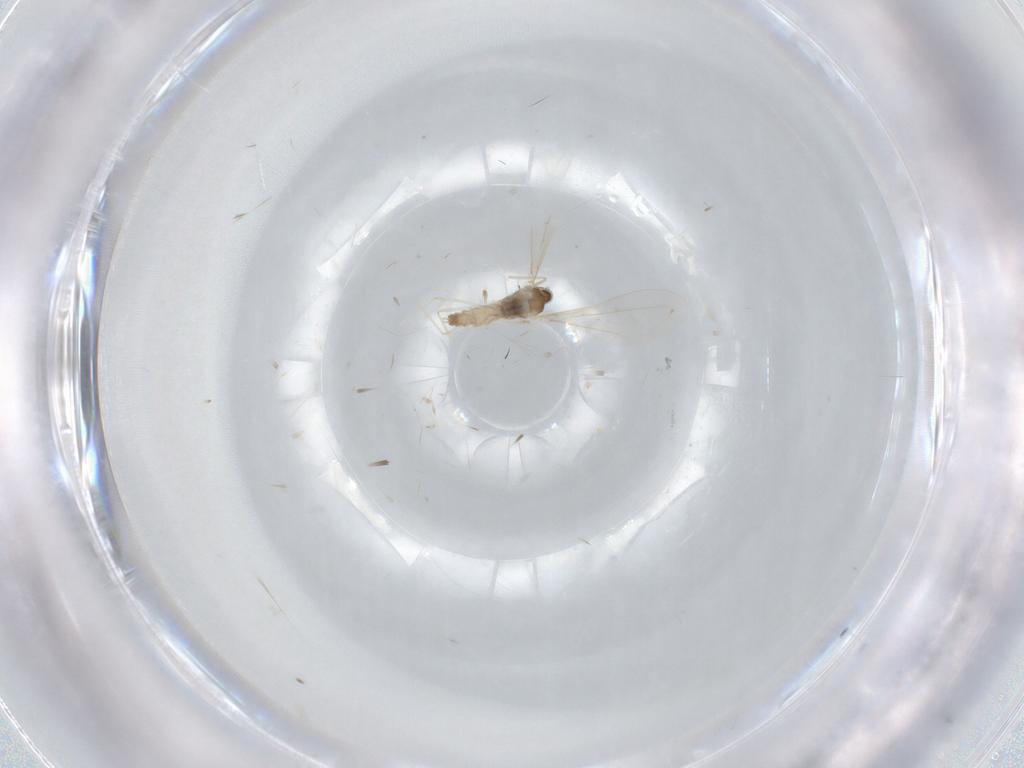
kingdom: Animalia
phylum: Arthropoda
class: Insecta
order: Diptera
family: Cecidomyiidae
